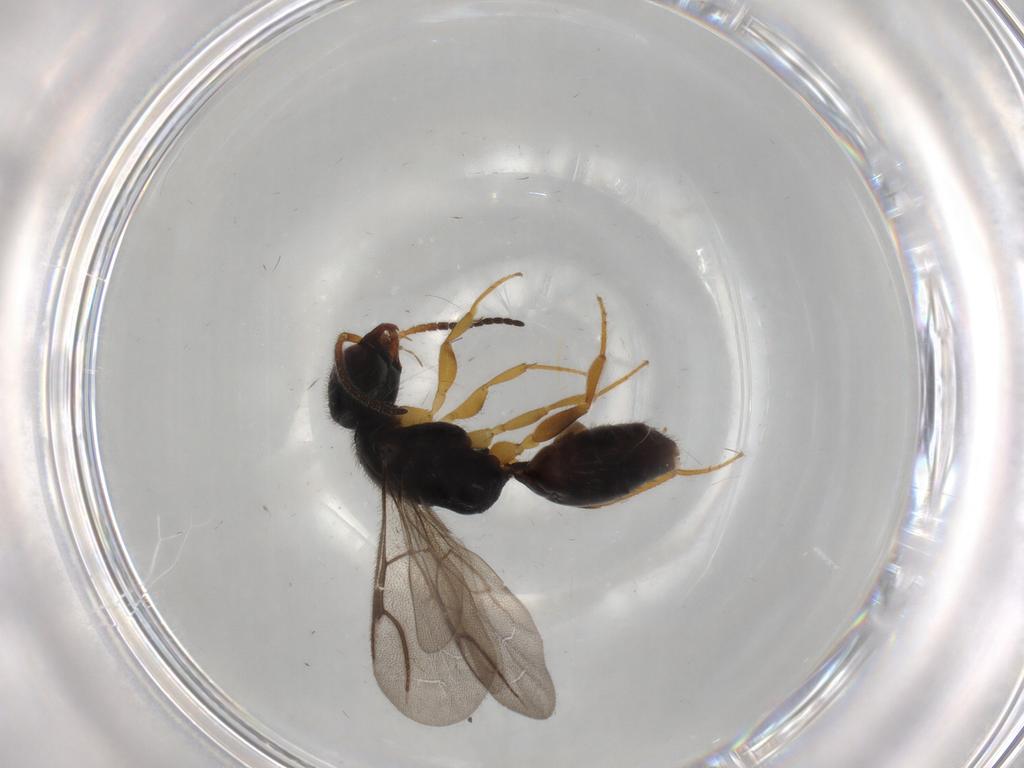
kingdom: Animalia
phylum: Arthropoda
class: Insecta
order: Hymenoptera
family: Bethylidae
